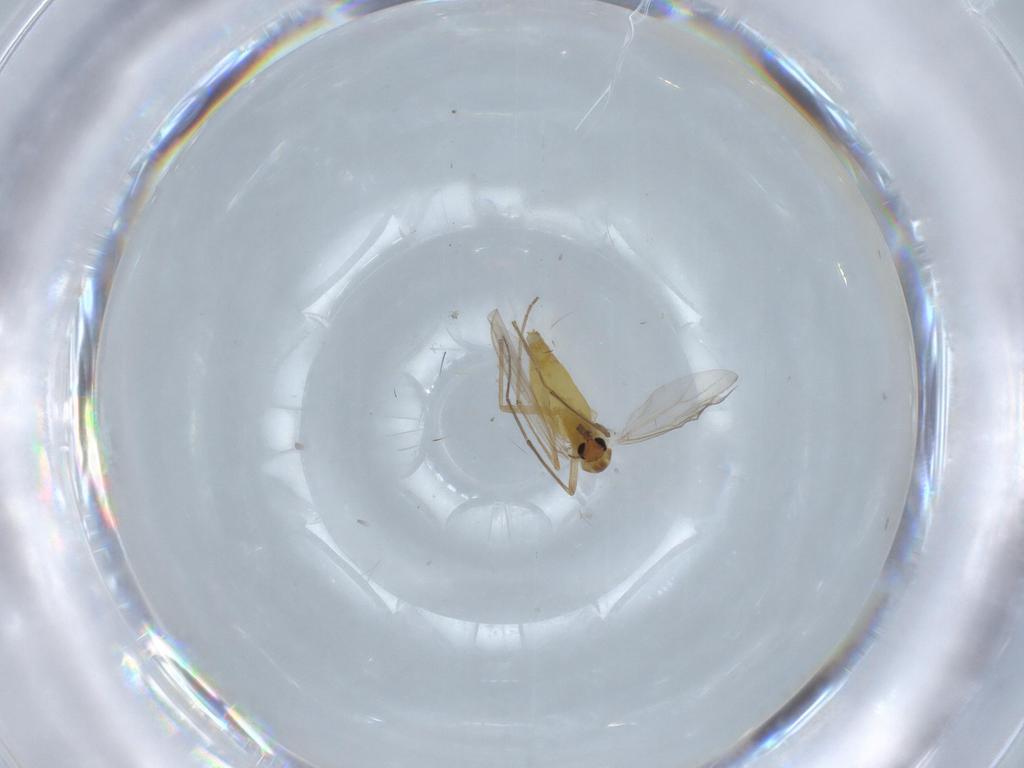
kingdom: Animalia
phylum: Arthropoda
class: Insecta
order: Diptera
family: Chironomidae
